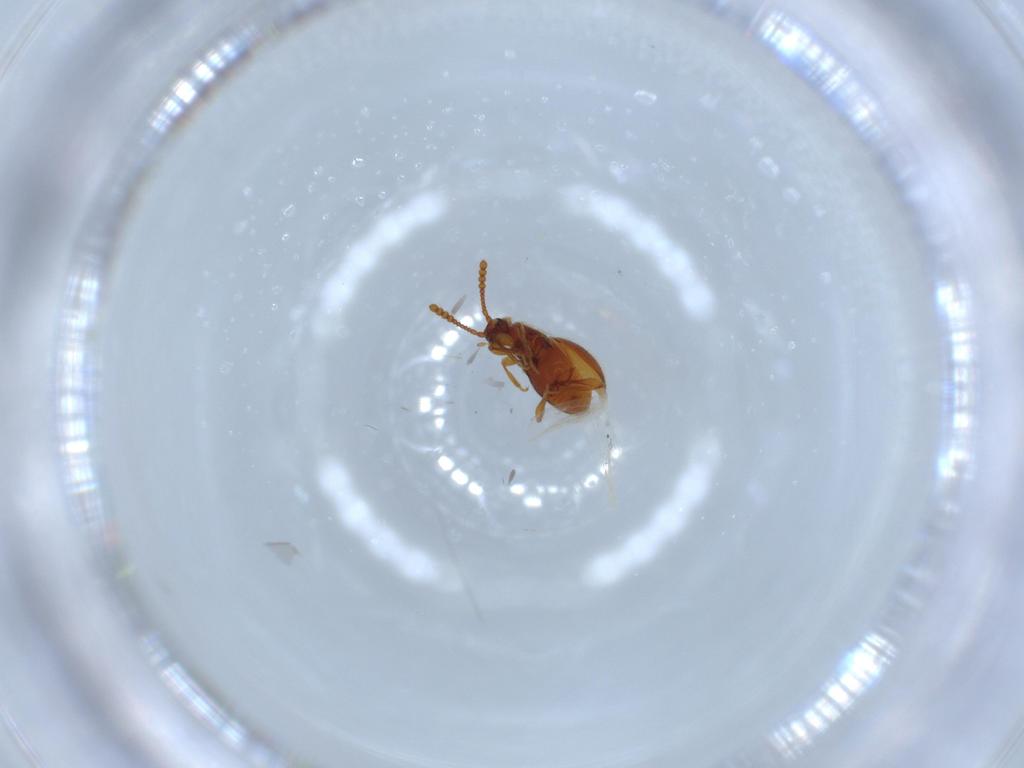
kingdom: Animalia
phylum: Arthropoda
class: Insecta
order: Coleoptera
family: Staphylinidae
